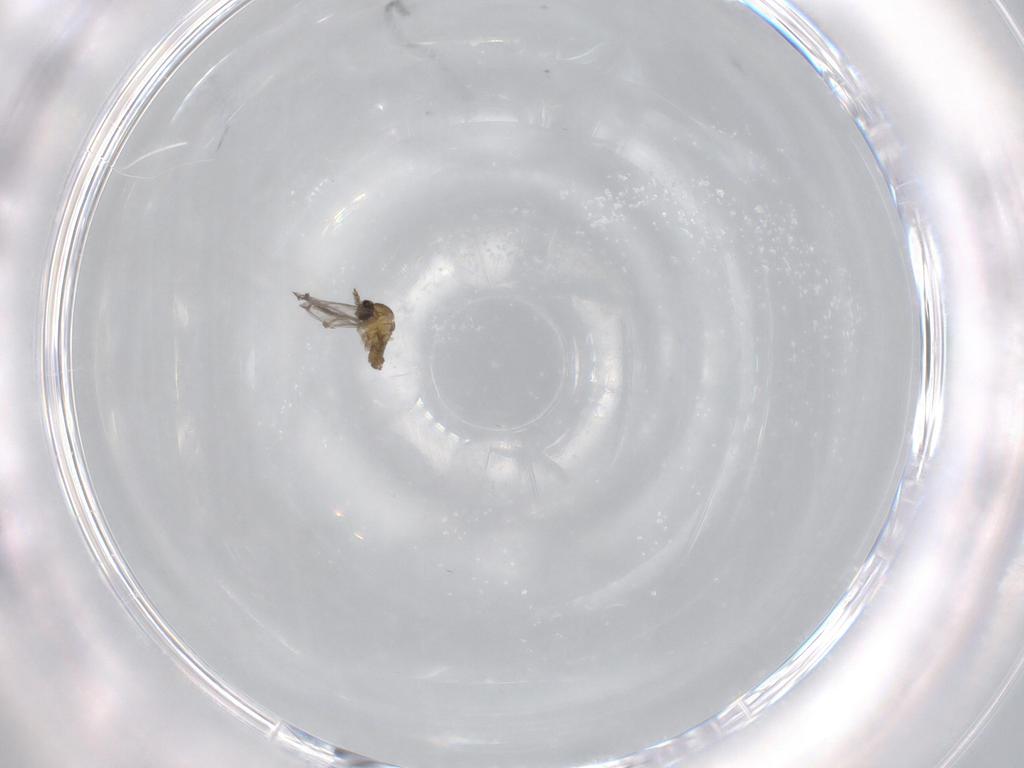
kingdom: Animalia
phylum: Arthropoda
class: Insecta
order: Diptera
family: Cecidomyiidae
